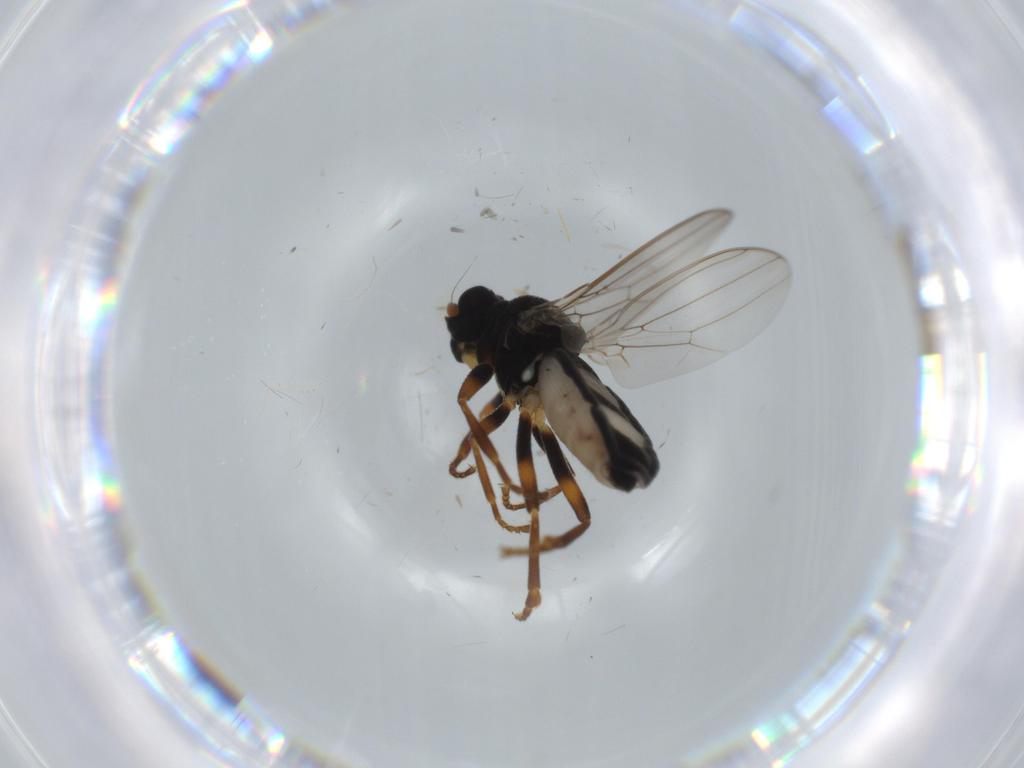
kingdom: Animalia
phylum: Arthropoda
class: Insecta
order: Diptera
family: Sphaeroceridae
